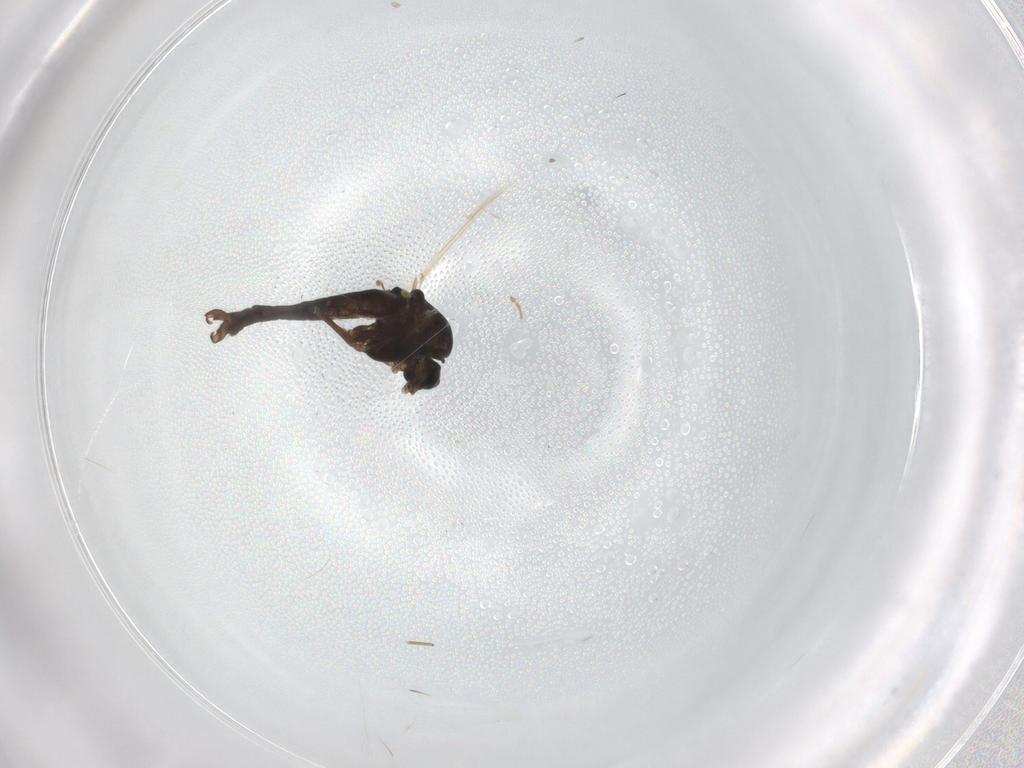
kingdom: Animalia
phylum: Arthropoda
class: Insecta
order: Diptera
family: Chironomidae
